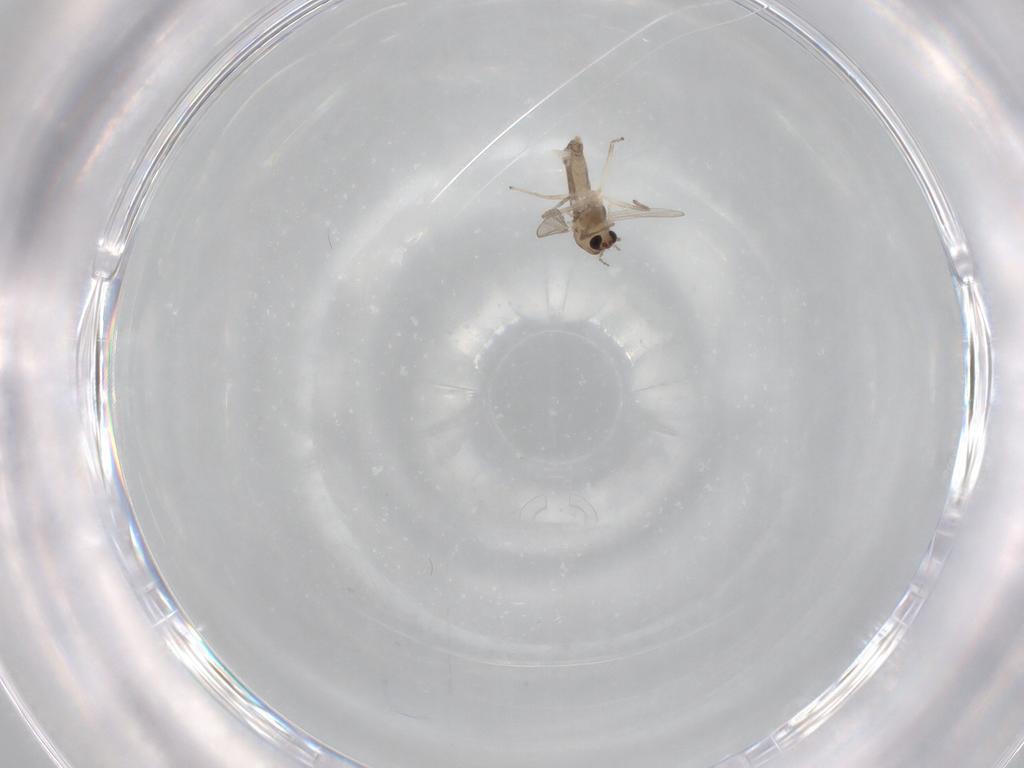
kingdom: Animalia
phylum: Arthropoda
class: Insecta
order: Diptera
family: Chironomidae
